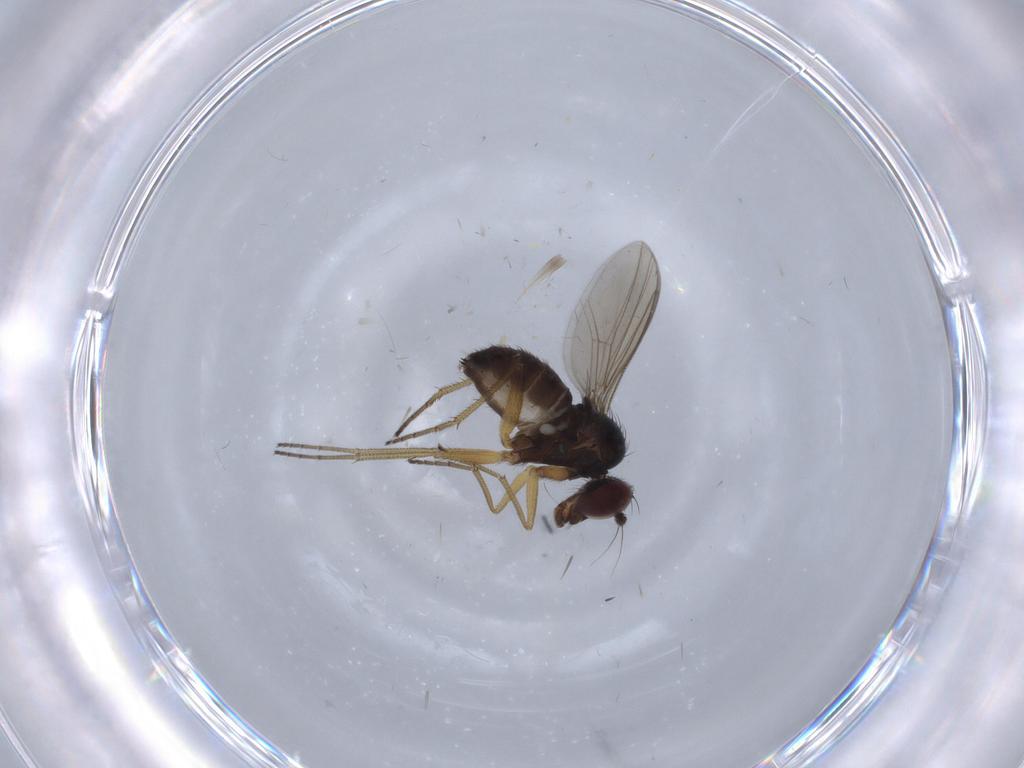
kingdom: Animalia
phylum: Arthropoda
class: Insecta
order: Diptera
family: Dolichopodidae
